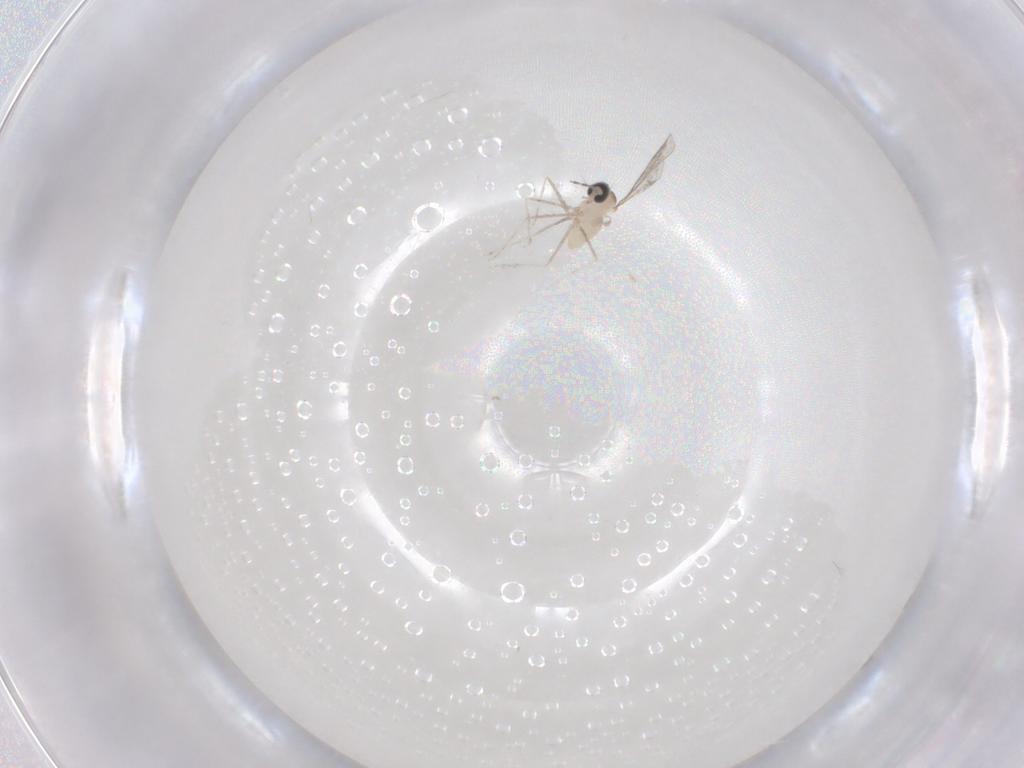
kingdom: Animalia
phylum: Arthropoda
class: Insecta
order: Diptera
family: Cecidomyiidae
